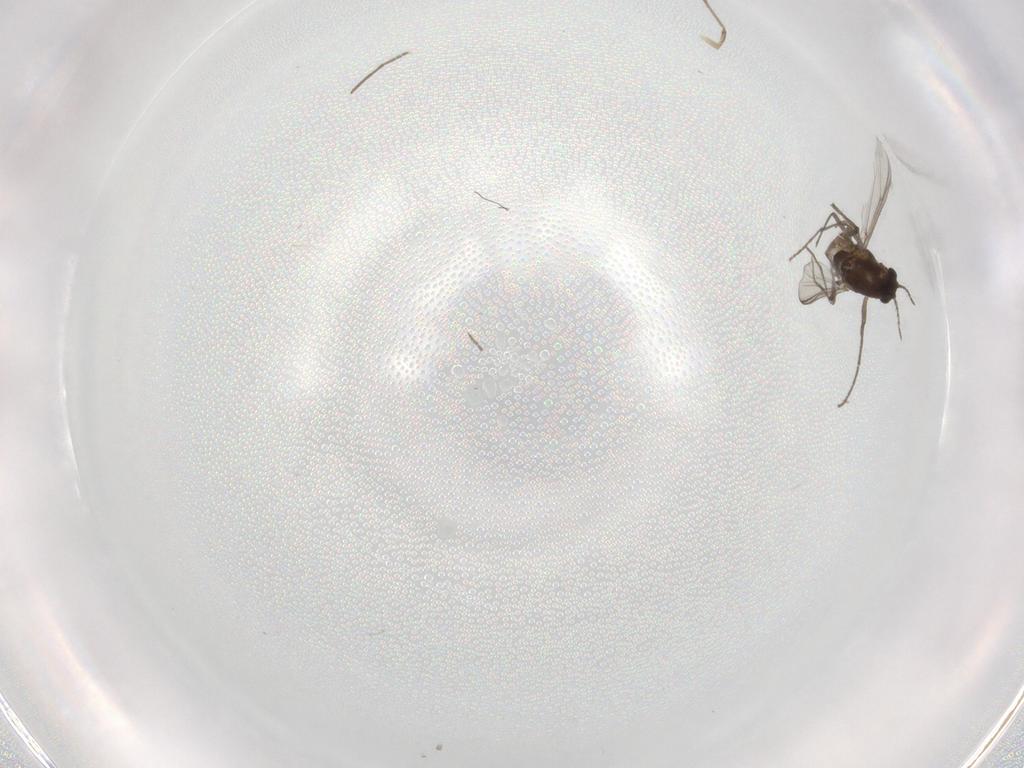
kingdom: Animalia
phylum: Arthropoda
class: Insecta
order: Diptera
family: Chironomidae
